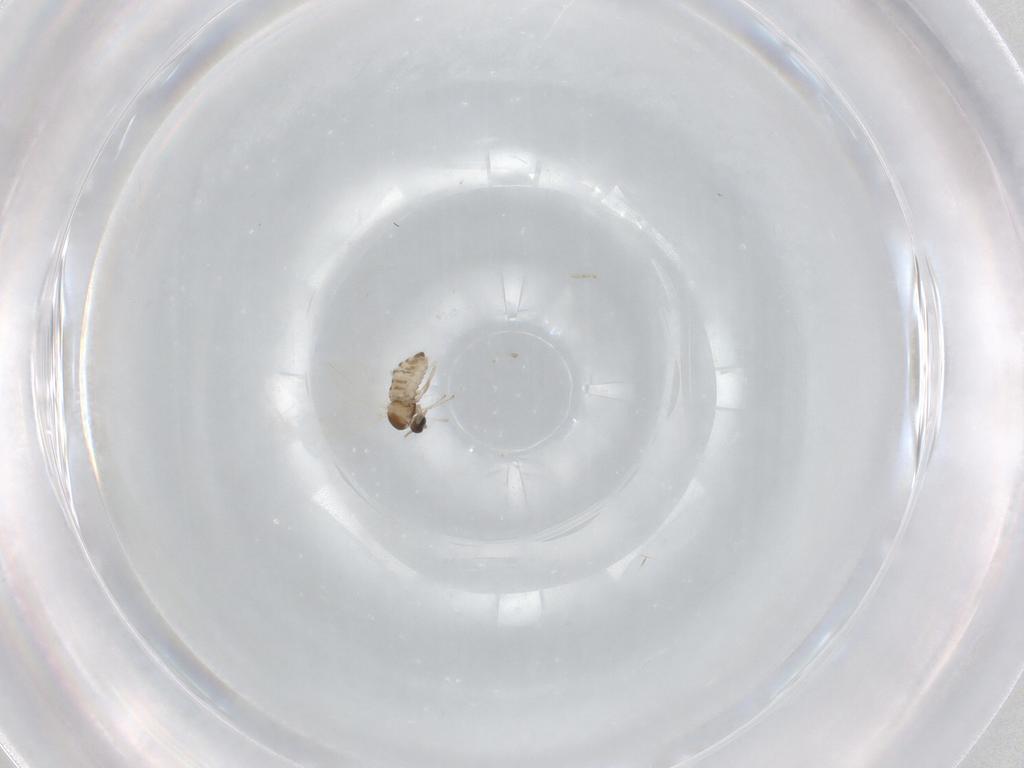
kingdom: Animalia
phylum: Arthropoda
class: Insecta
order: Diptera
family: Cecidomyiidae
